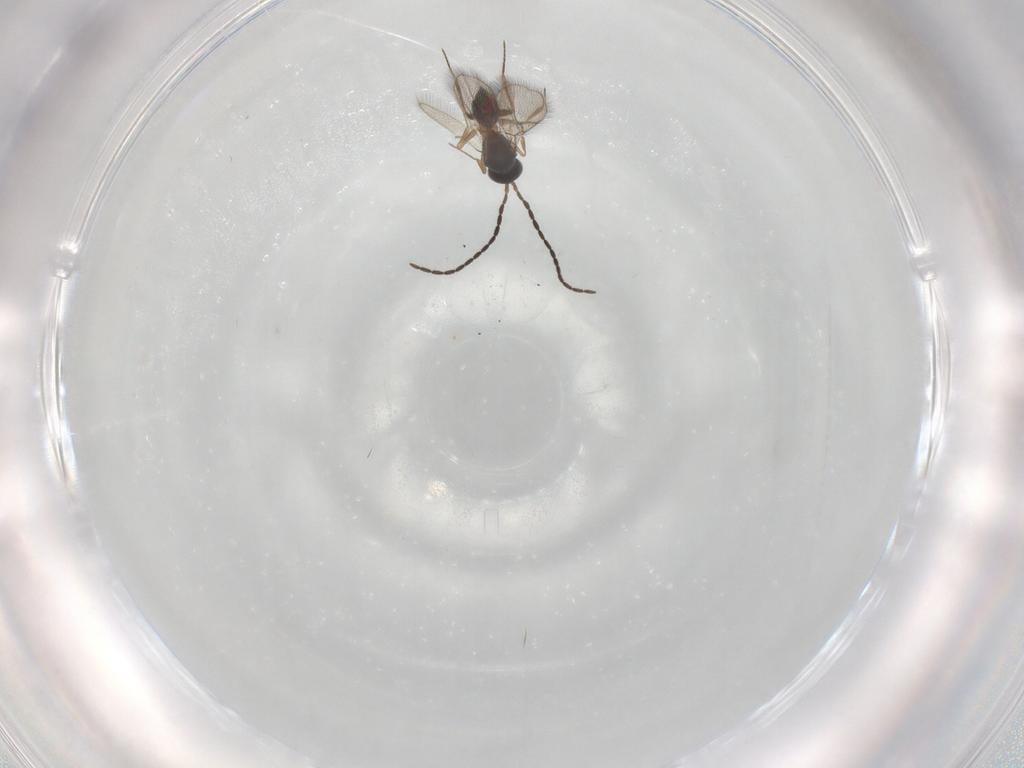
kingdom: Animalia
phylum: Arthropoda
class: Insecta
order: Hymenoptera
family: Figitidae
